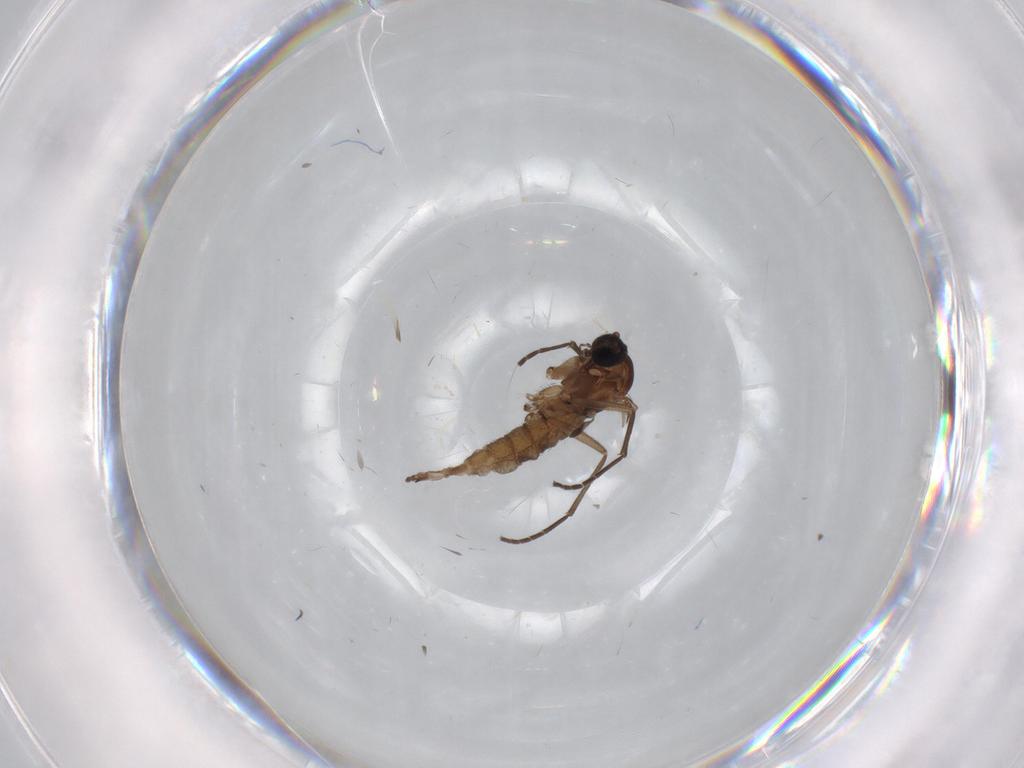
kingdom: Animalia
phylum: Arthropoda
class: Insecta
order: Diptera
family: Sciaridae
